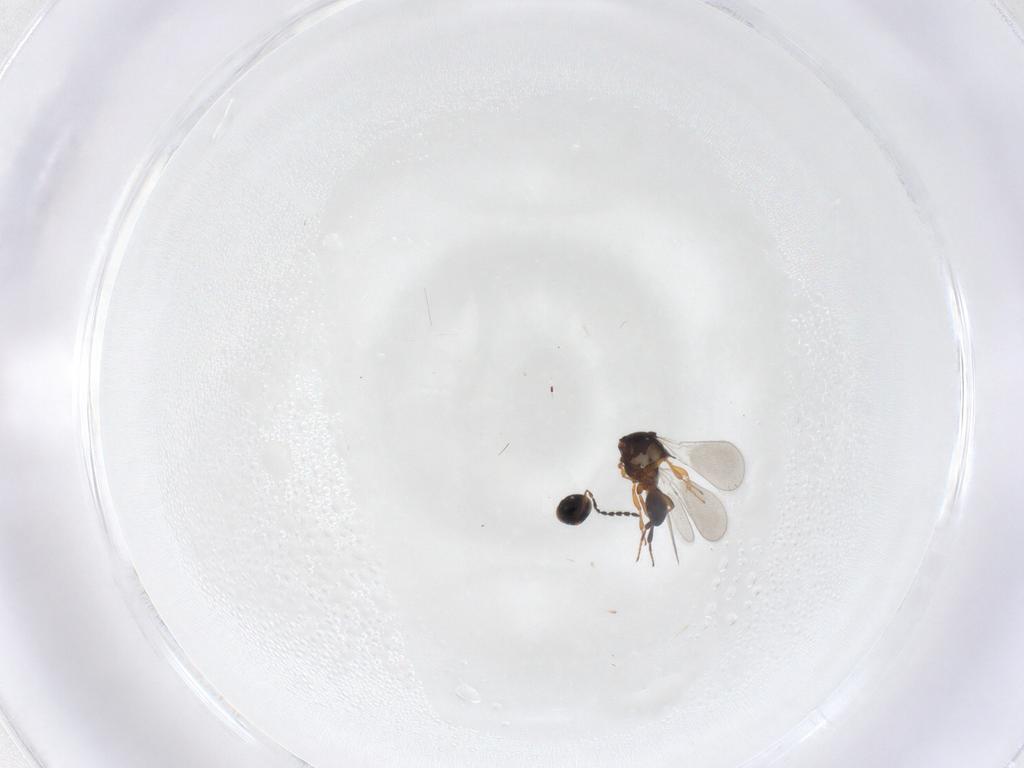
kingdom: Animalia
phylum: Arthropoda
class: Insecta
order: Hymenoptera
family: Platygastridae
